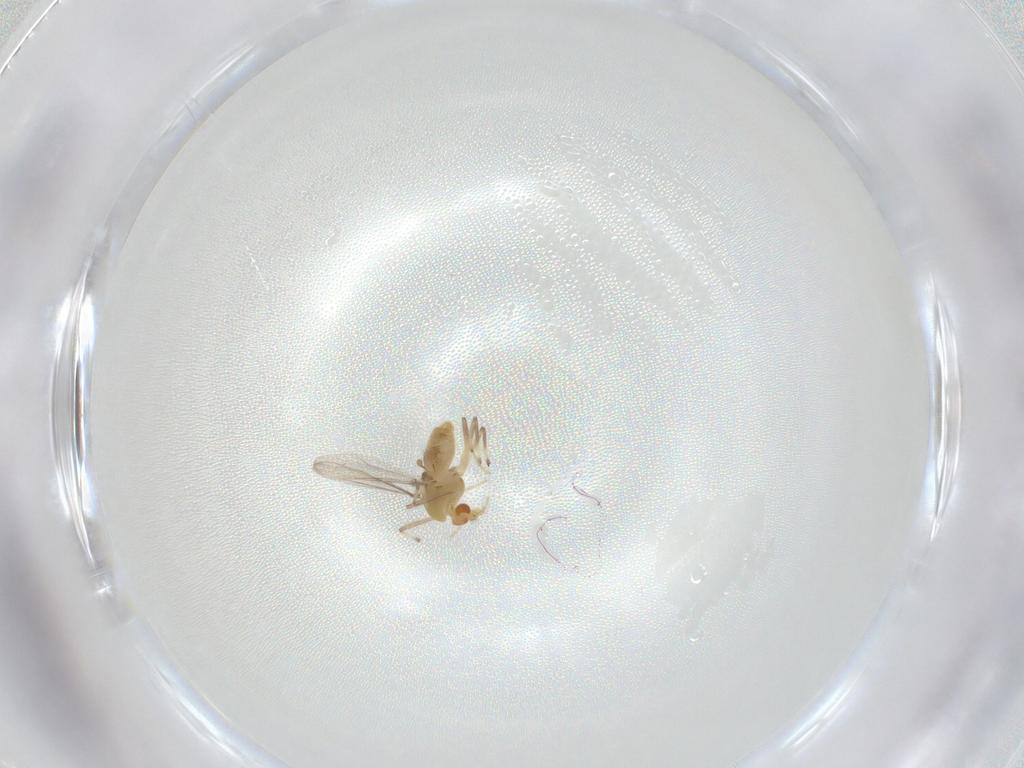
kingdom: Animalia
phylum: Arthropoda
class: Insecta
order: Diptera
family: Chironomidae
